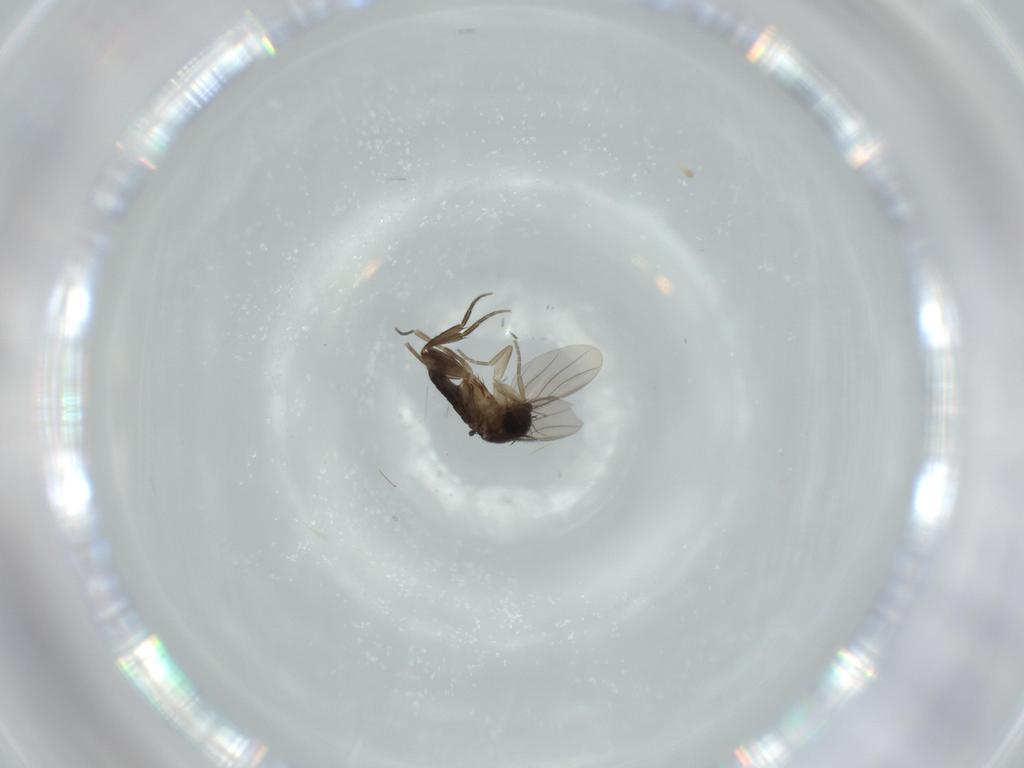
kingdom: Animalia
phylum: Arthropoda
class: Insecta
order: Diptera
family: Phoridae
